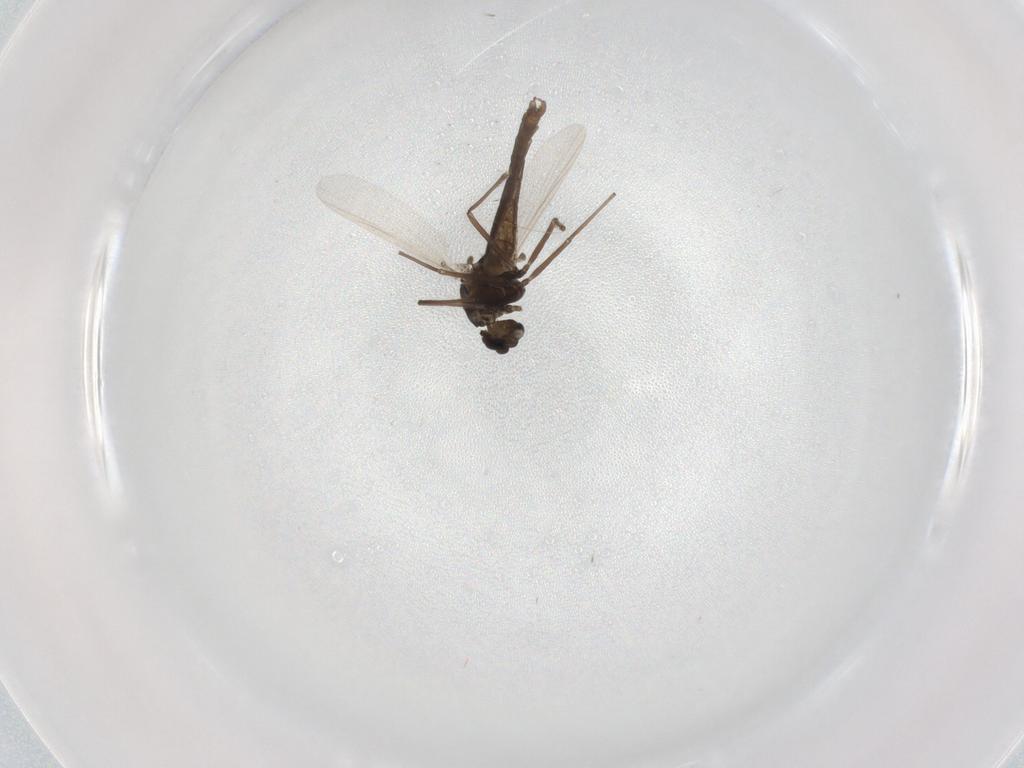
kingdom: Animalia
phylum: Arthropoda
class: Insecta
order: Diptera
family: Chironomidae
